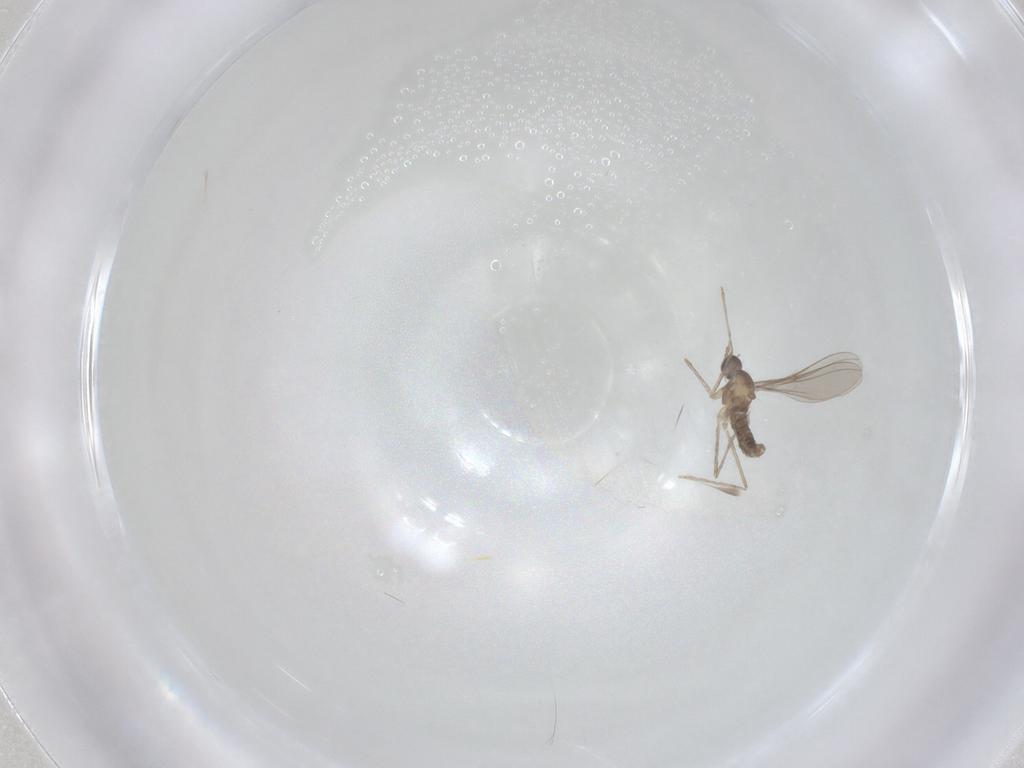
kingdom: Animalia
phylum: Arthropoda
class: Insecta
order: Diptera
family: Cecidomyiidae
